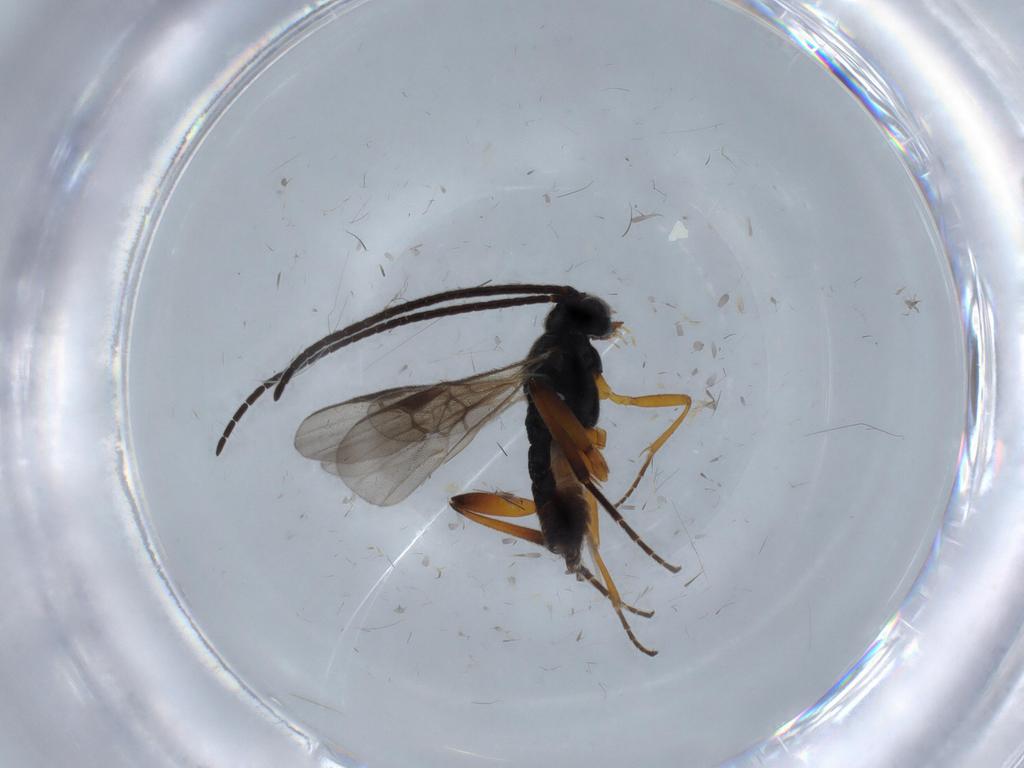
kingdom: Animalia
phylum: Arthropoda
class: Insecta
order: Hymenoptera
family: Braconidae
